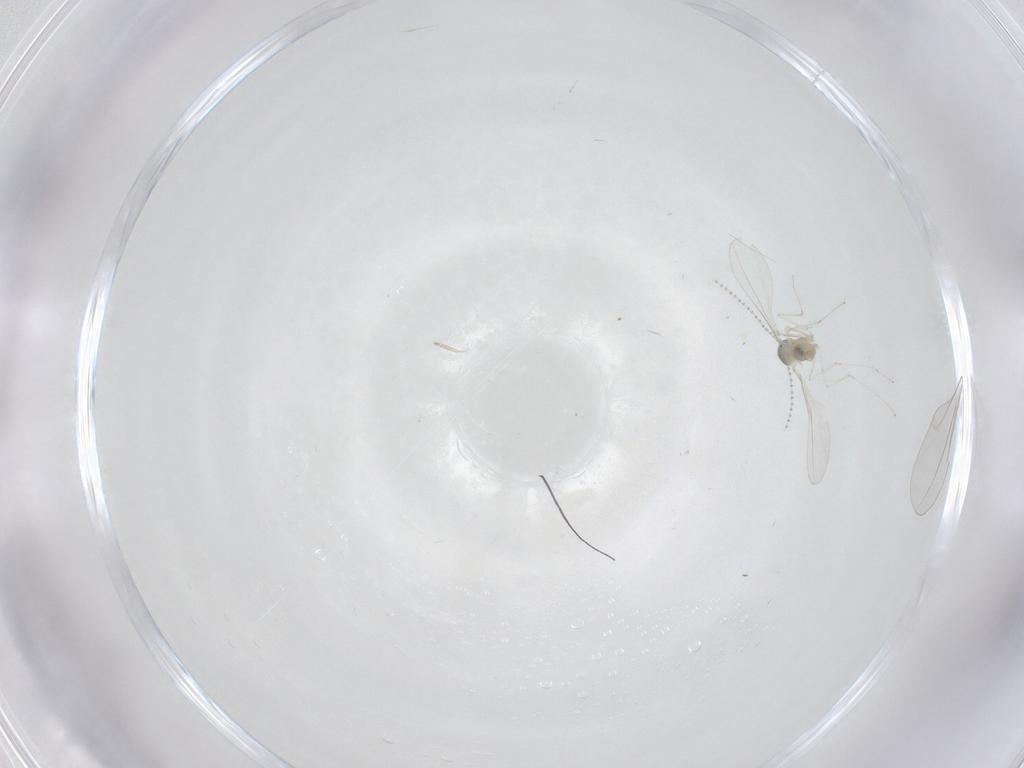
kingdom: Animalia
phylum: Arthropoda
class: Insecta
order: Diptera
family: Cecidomyiidae
